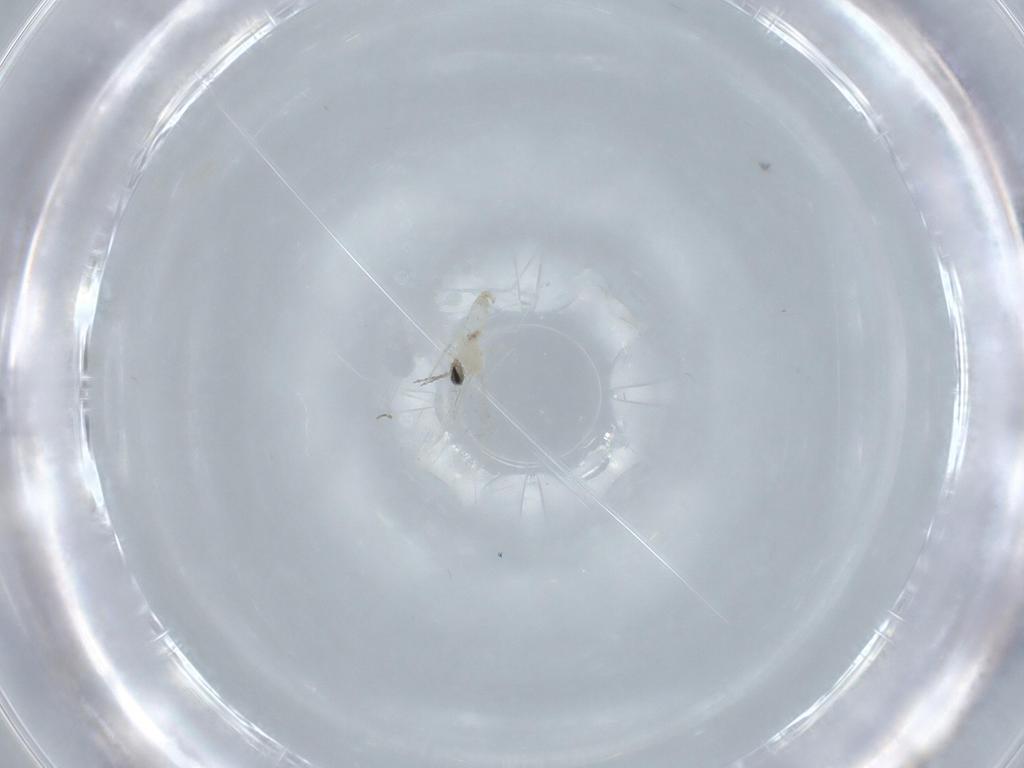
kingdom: Animalia
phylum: Arthropoda
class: Insecta
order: Diptera
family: Cecidomyiidae
